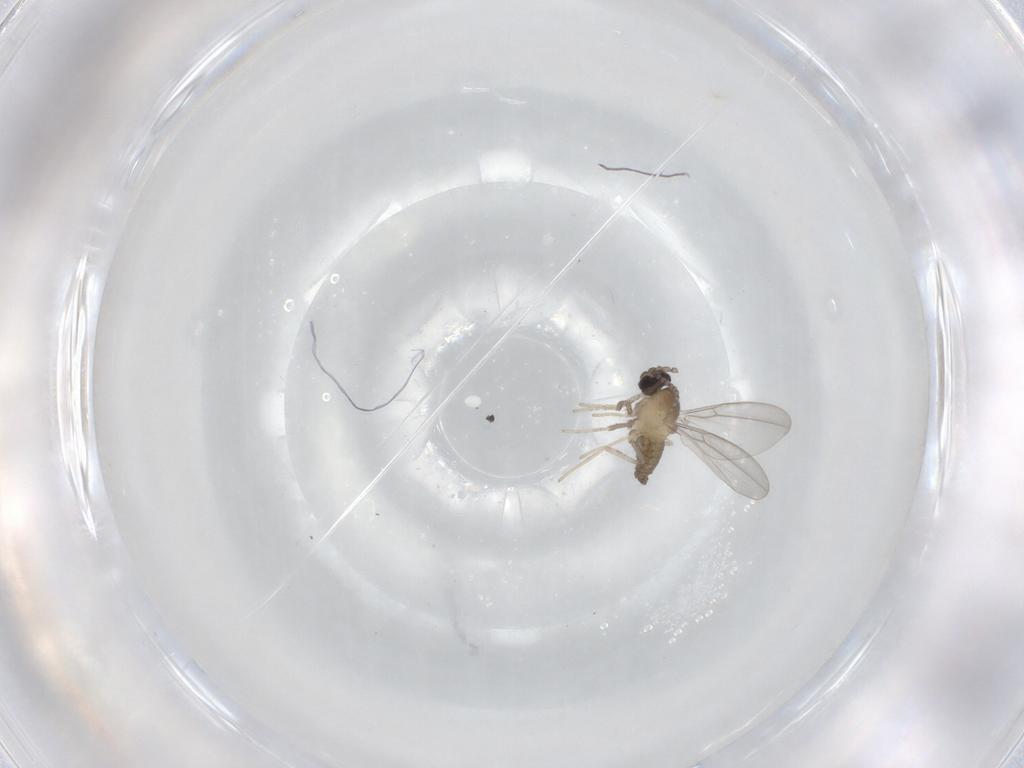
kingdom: Animalia
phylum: Arthropoda
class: Insecta
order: Diptera
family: Cecidomyiidae
